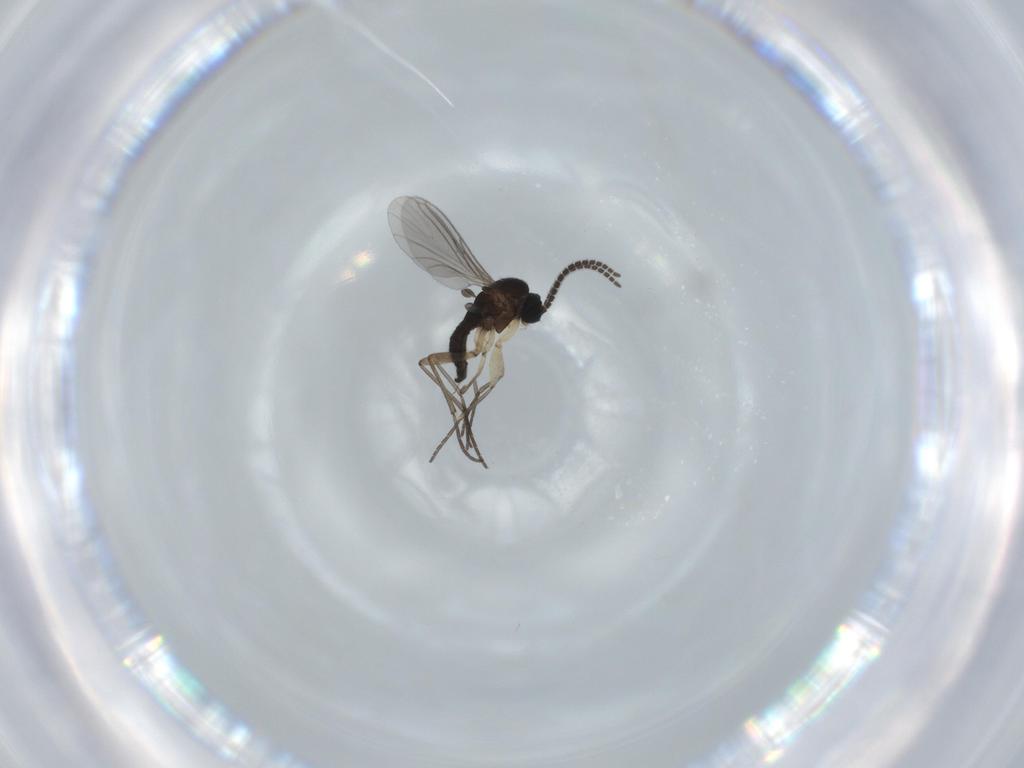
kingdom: Animalia
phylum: Arthropoda
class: Insecta
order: Diptera
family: Sciaridae
